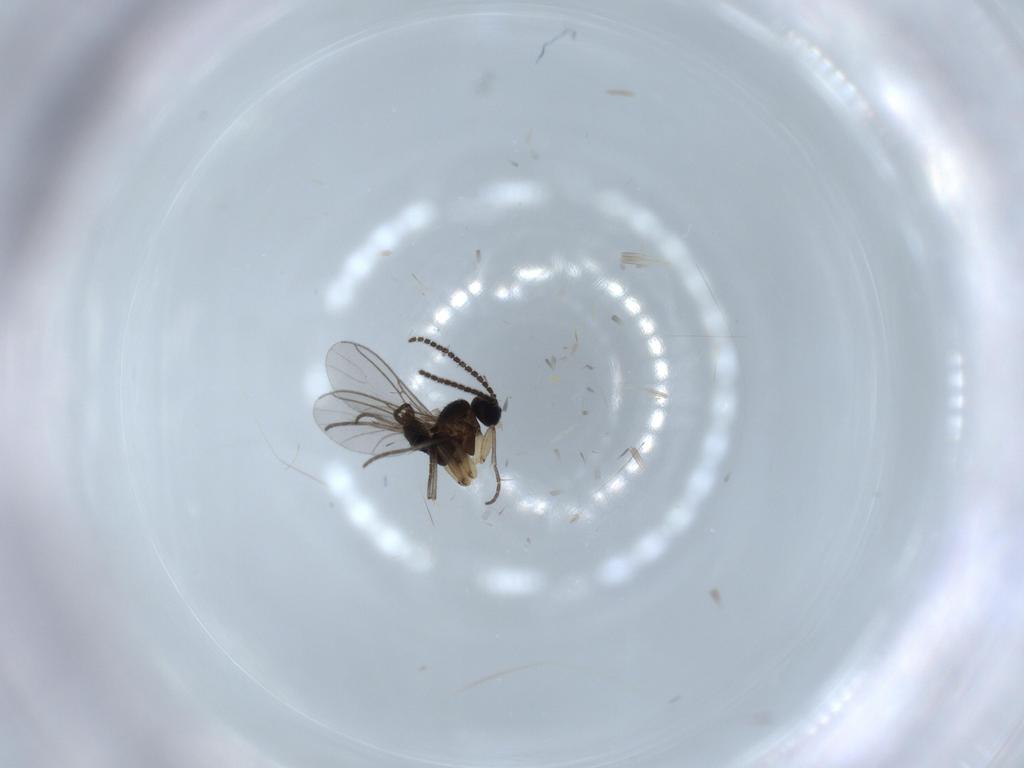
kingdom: Animalia
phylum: Arthropoda
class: Insecta
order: Diptera
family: Sciaridae
